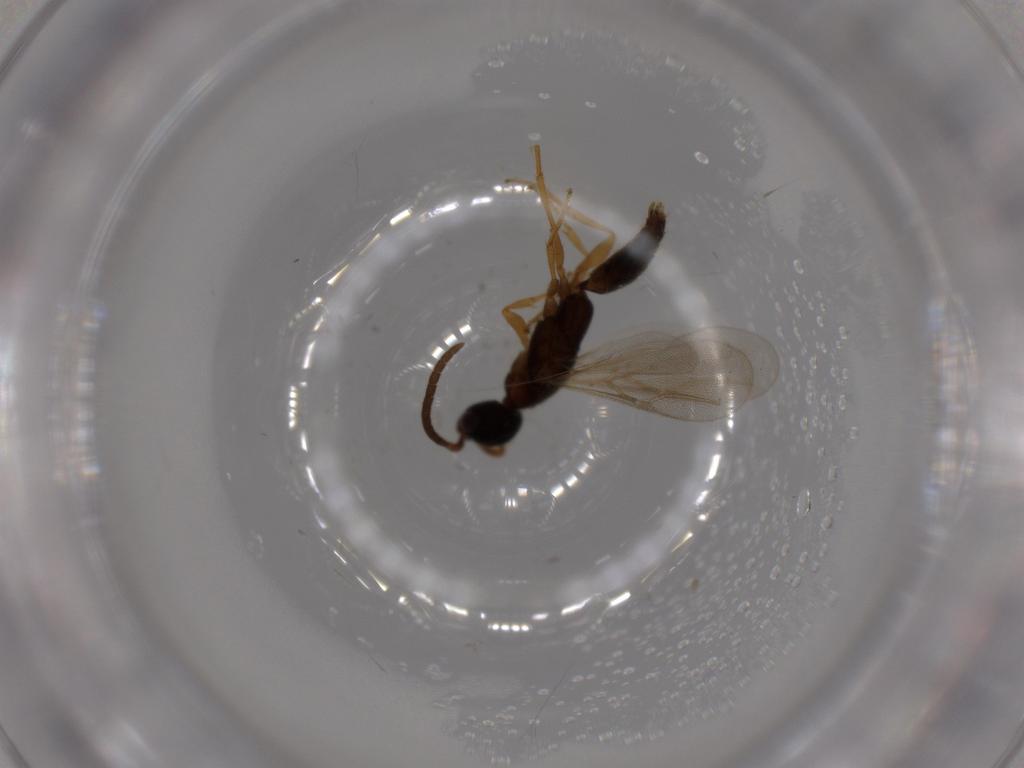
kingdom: Animalia
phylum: Arthropoda
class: Insecta
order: Hymenoptera
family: Bethylidae
